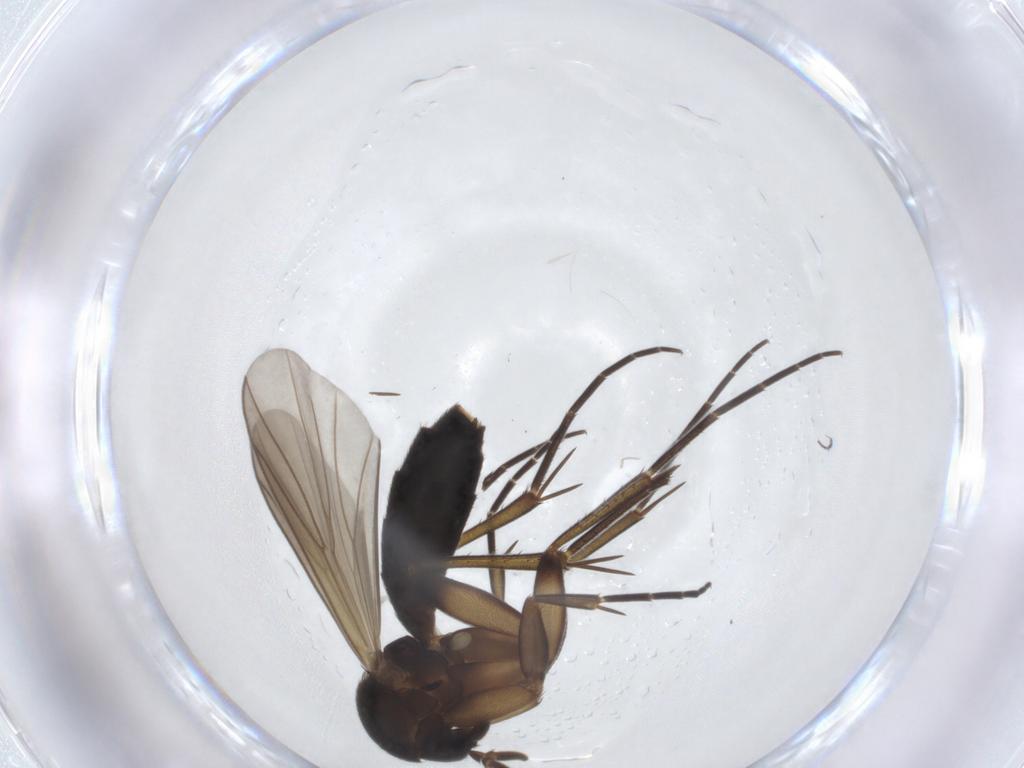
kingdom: Animalia
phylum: Arthropoda
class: Insecta
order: Diptera
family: Mycetophilidae
